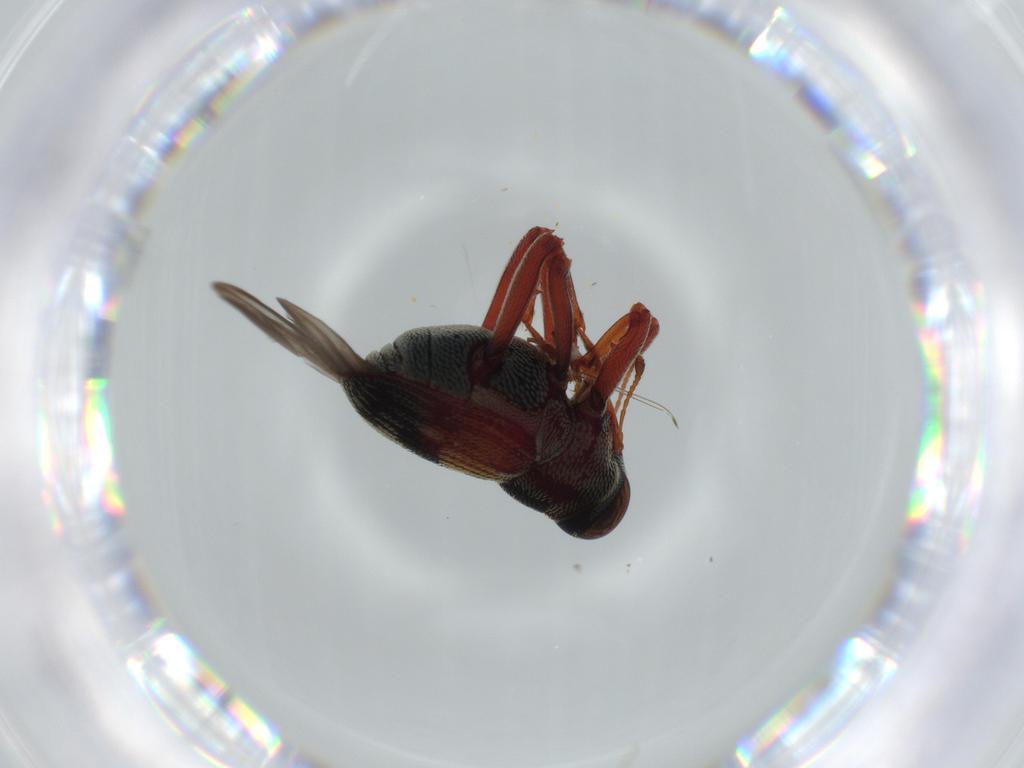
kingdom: Animalia
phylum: Arthropoda
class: Insecta
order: Coleoptera
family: Curculionidae
